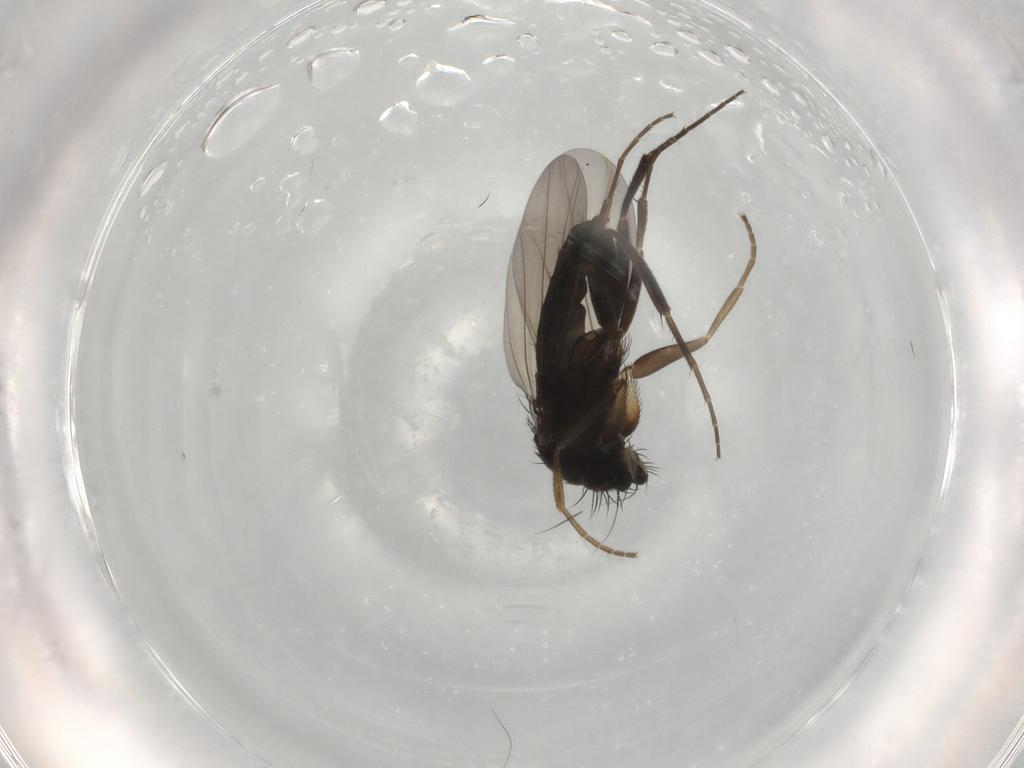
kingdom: Animalia
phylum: Arthropoda
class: Insecta
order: Diptera
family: Phoridae
